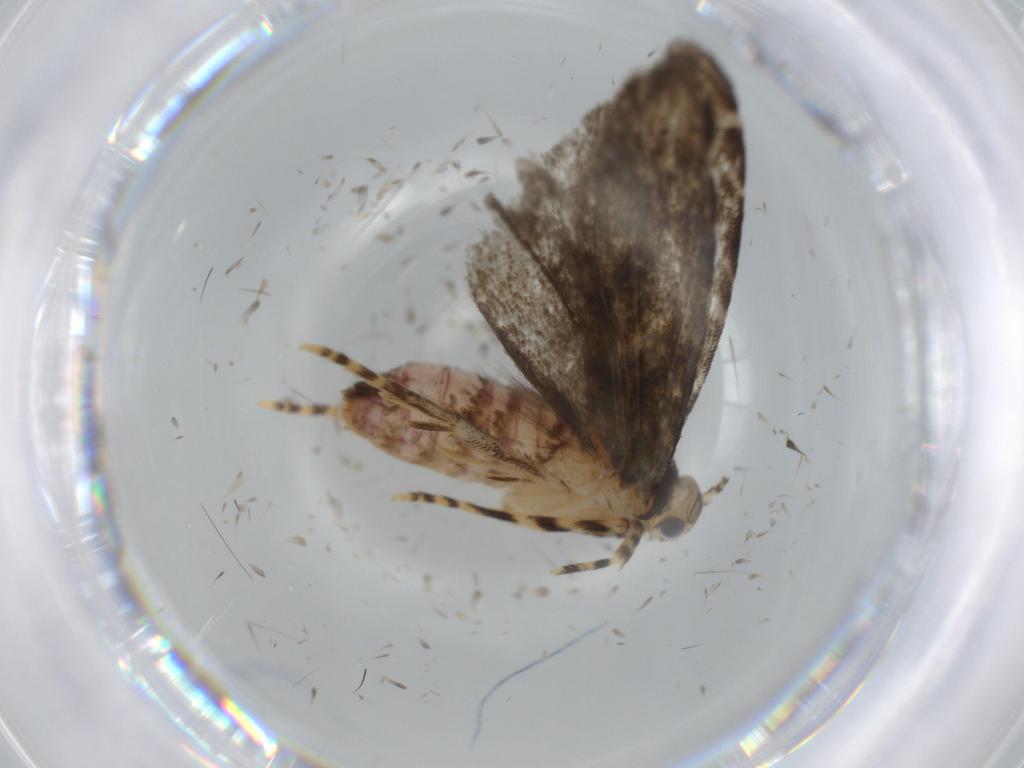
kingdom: Animalia
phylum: Arthropoda
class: Insecta
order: Lepidoptera
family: Tineidae
